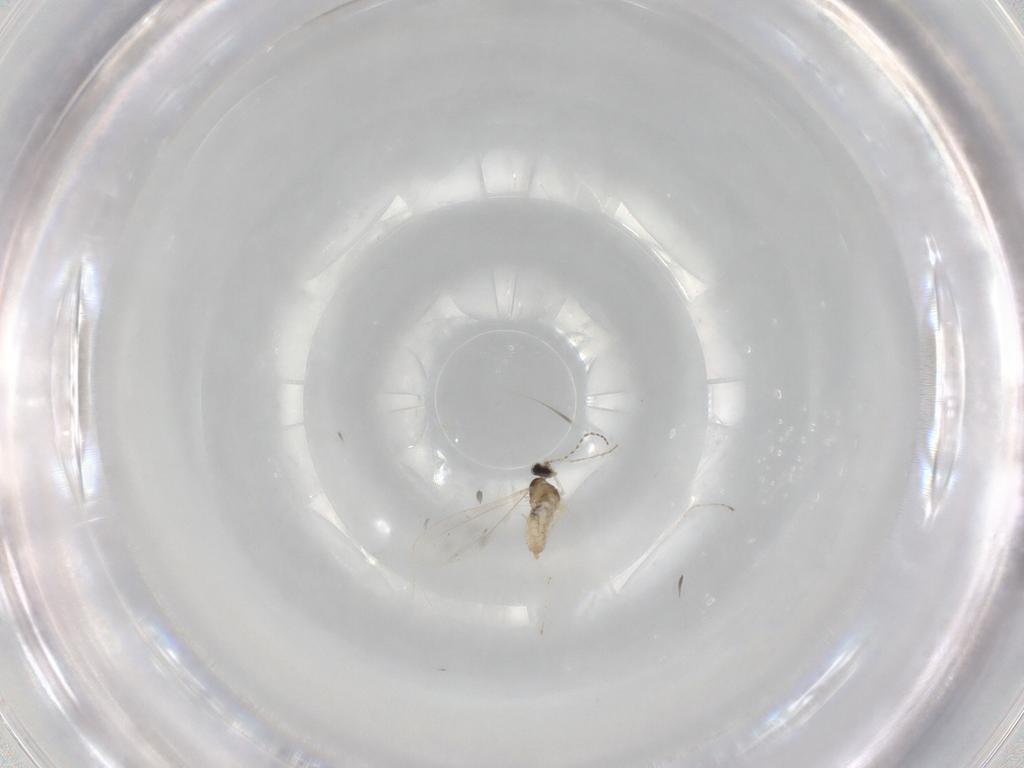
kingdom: Animalia
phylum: Arthropoda
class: Insecta
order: Diptera
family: Cecidomyiidae
